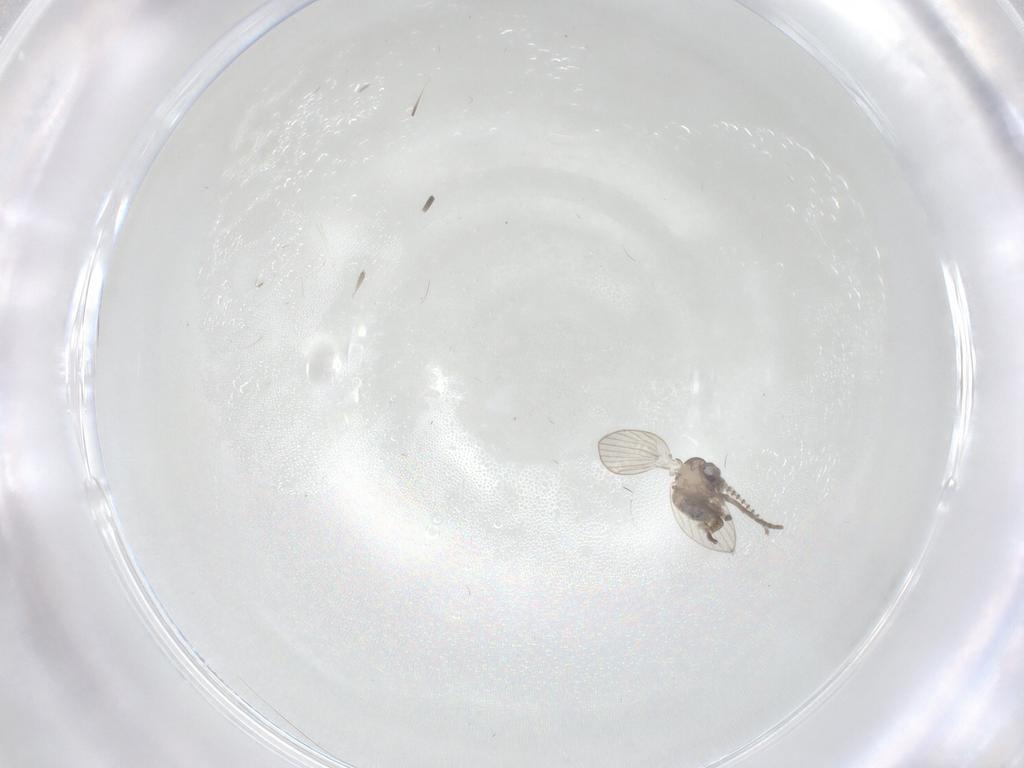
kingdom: Animalia
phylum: Arthropoda
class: Insecta
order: Diptera
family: Psychodidae
